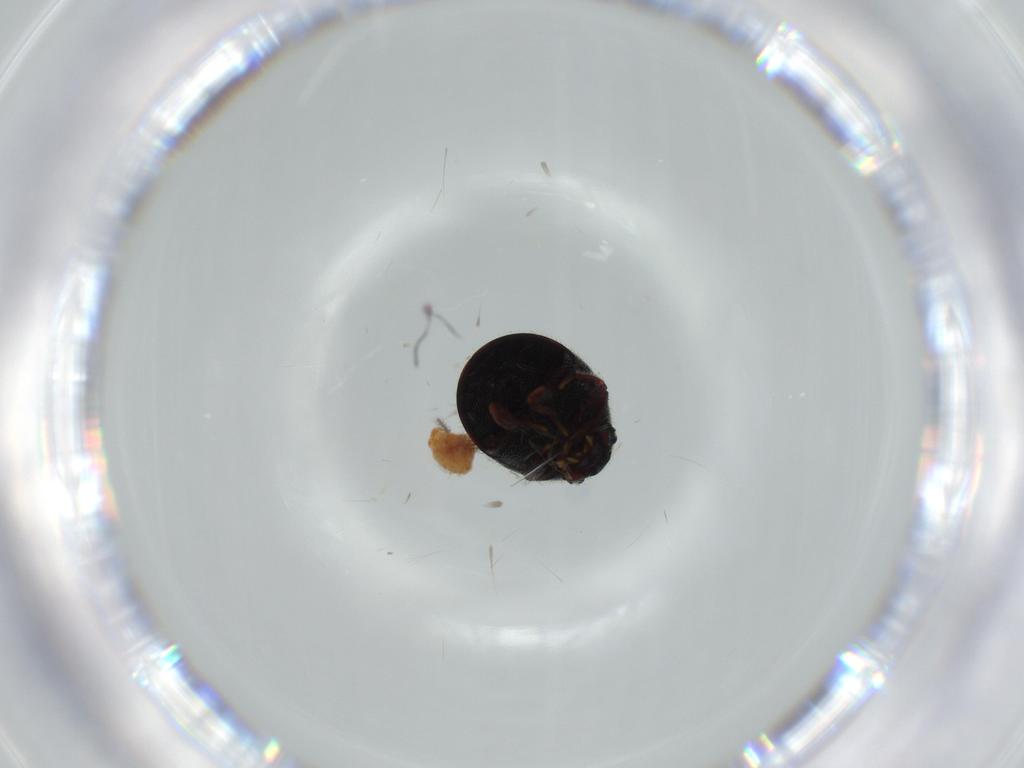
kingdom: Animalia
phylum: Arthropoda
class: Insecta
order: Coleoptera
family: Ptinidae
